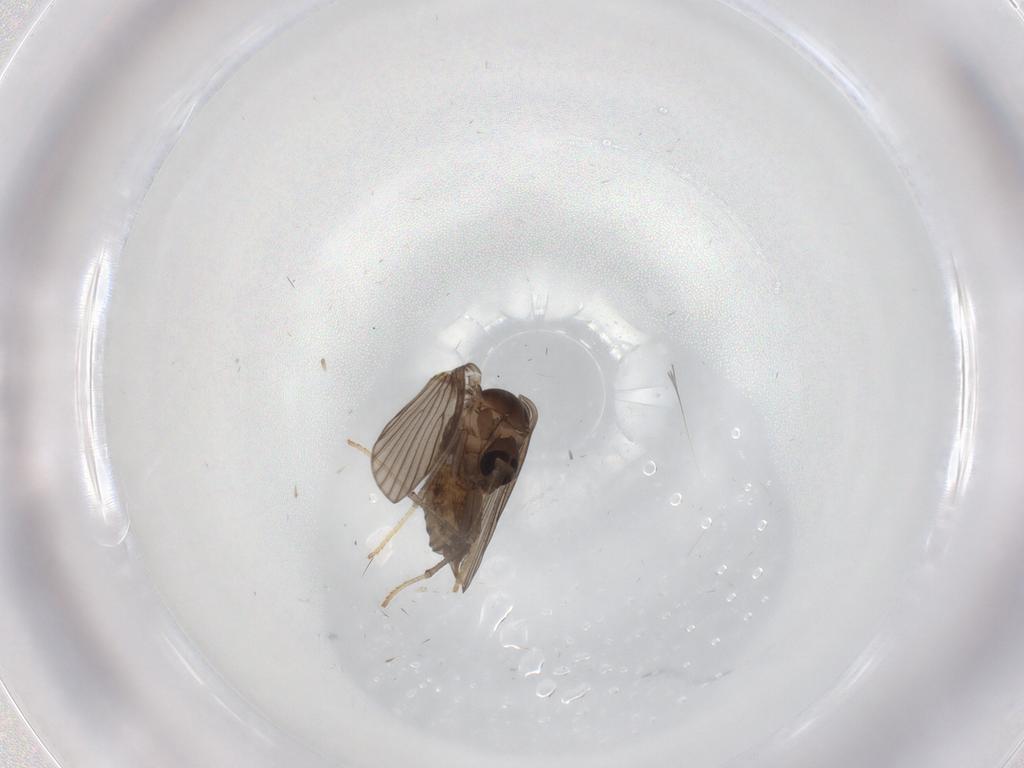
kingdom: Animalia
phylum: Arthropoda
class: Insecta
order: Diptera
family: Psychodidae
